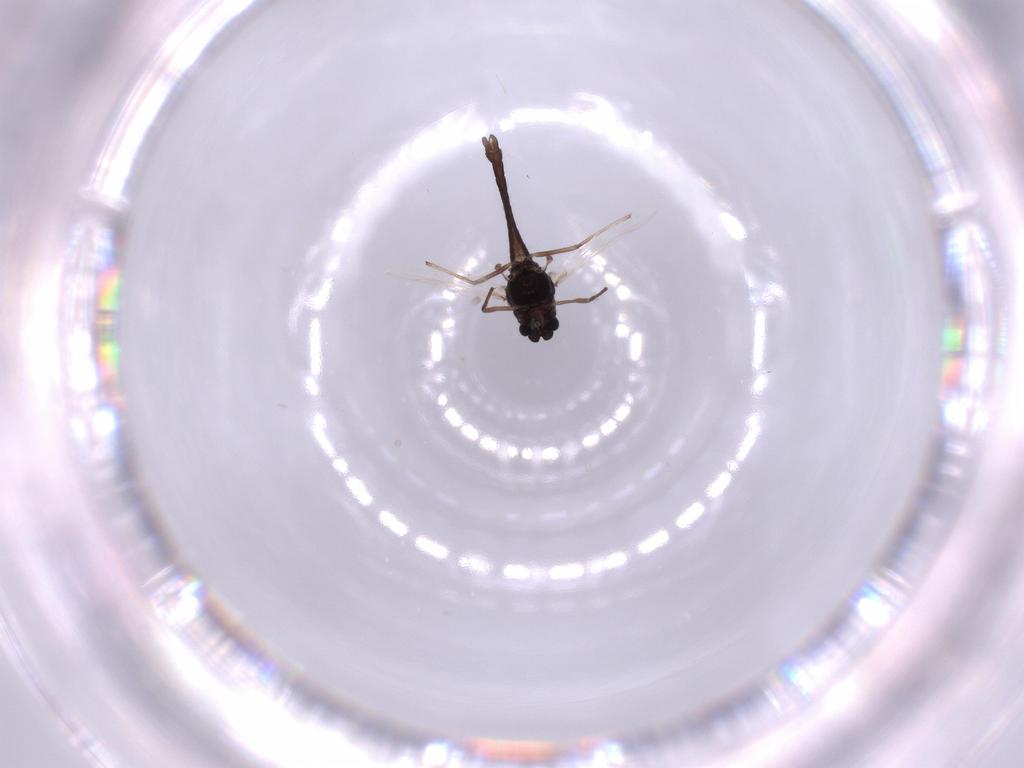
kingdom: Animalia
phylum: Arthropoda
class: Insecta
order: Diptera
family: Chironomidae
